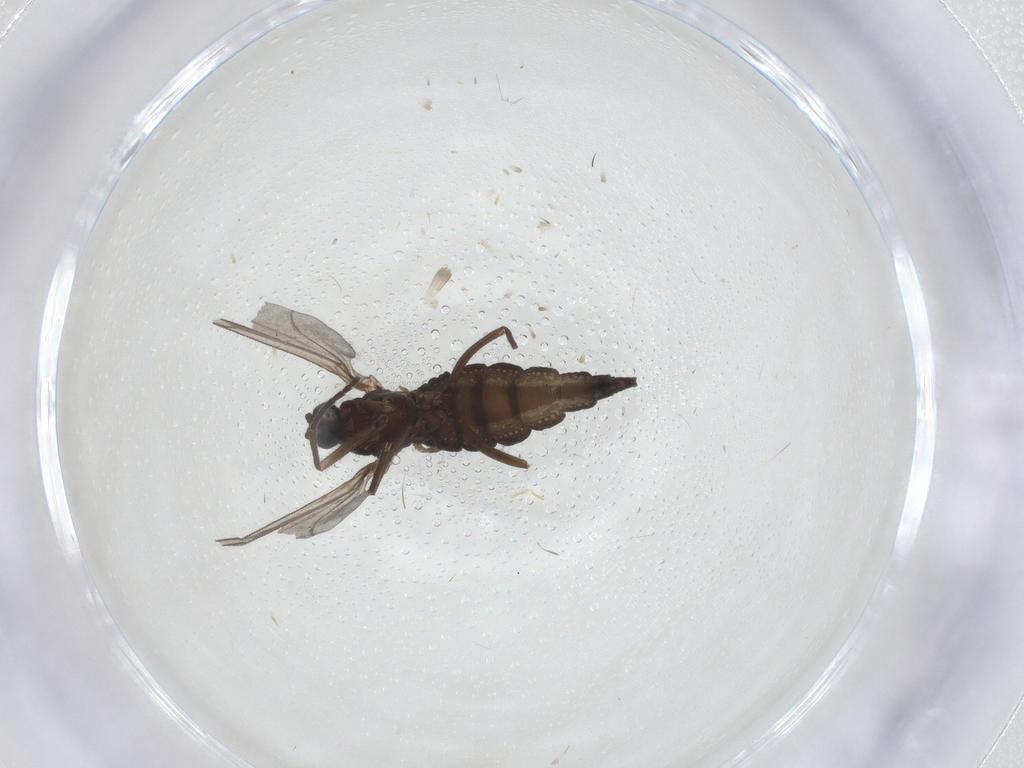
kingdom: Animalia
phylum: Arthropoda
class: Insecta
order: Diptera
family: Sciaridae
